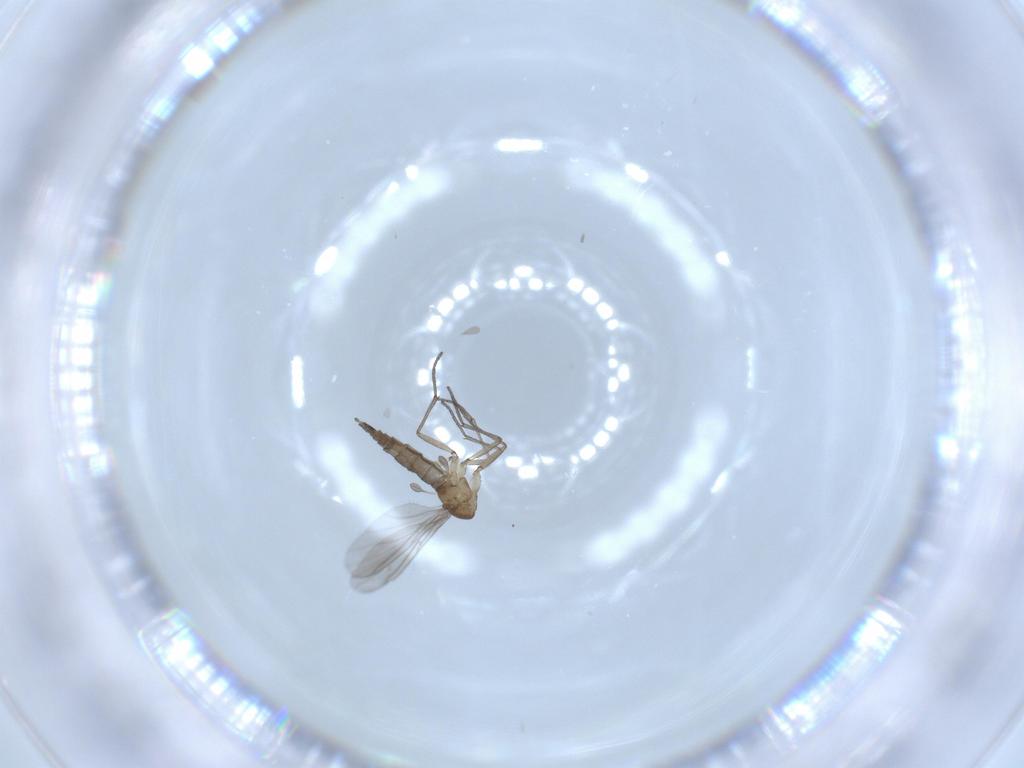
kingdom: Animalia
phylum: Arthropoda
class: Insecta
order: Diptera
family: Sciaridae
